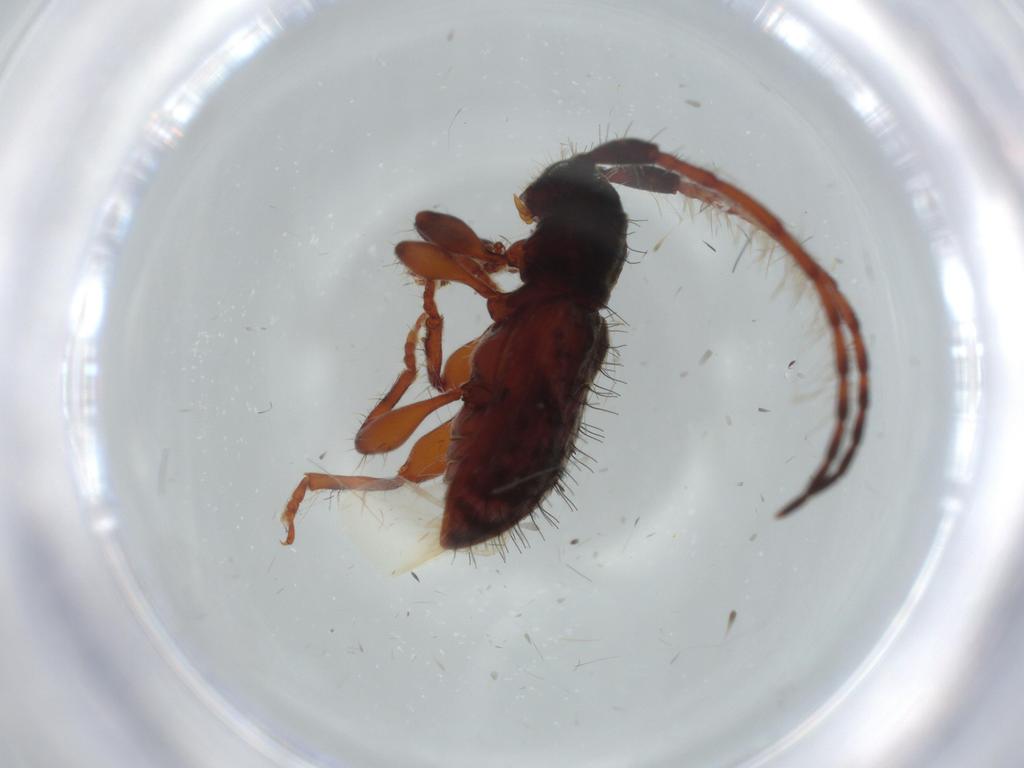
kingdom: Animalia
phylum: Arthropoda
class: Insecta
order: Coleoptera
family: Cerambycidae
